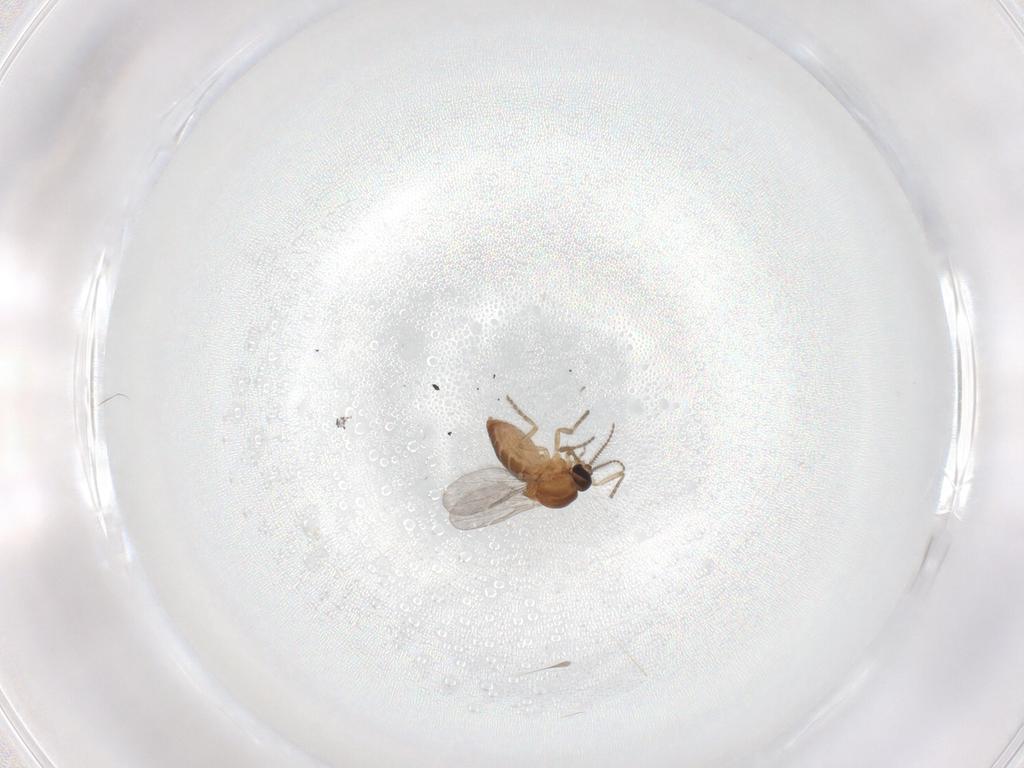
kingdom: Animalia
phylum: Arthropoda
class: Insecta
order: Diptera
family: Ceratopogonidae
